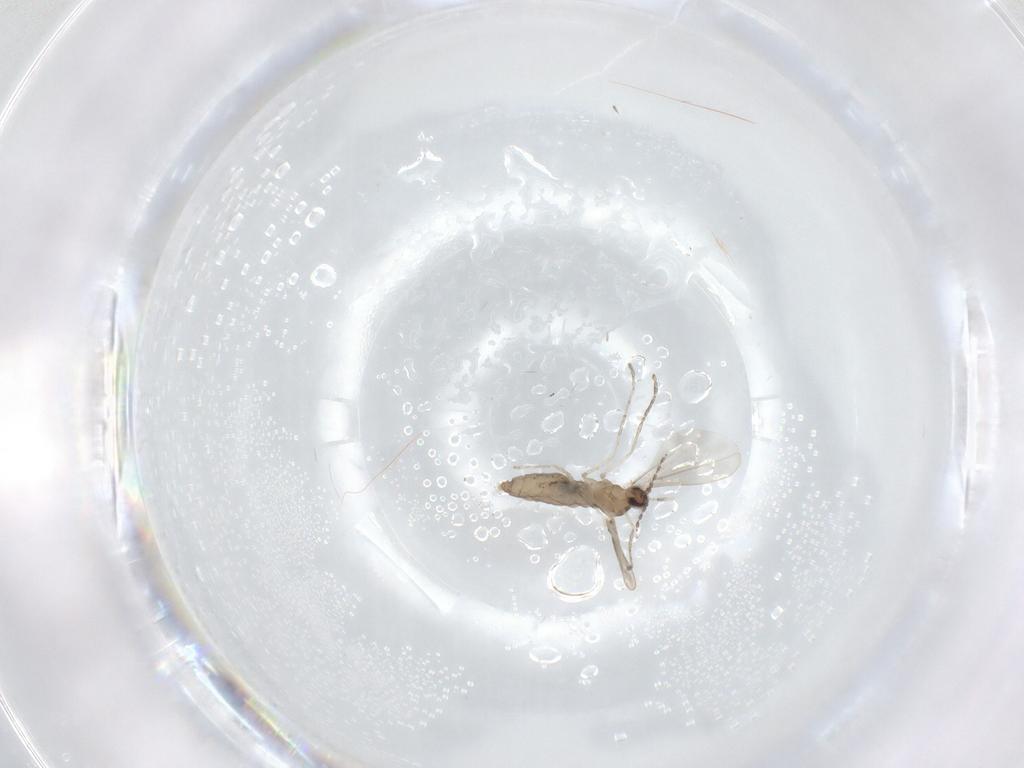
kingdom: Animalia
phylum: Arthropoda
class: Insecta
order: Diptera
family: Cecidomyiidae
